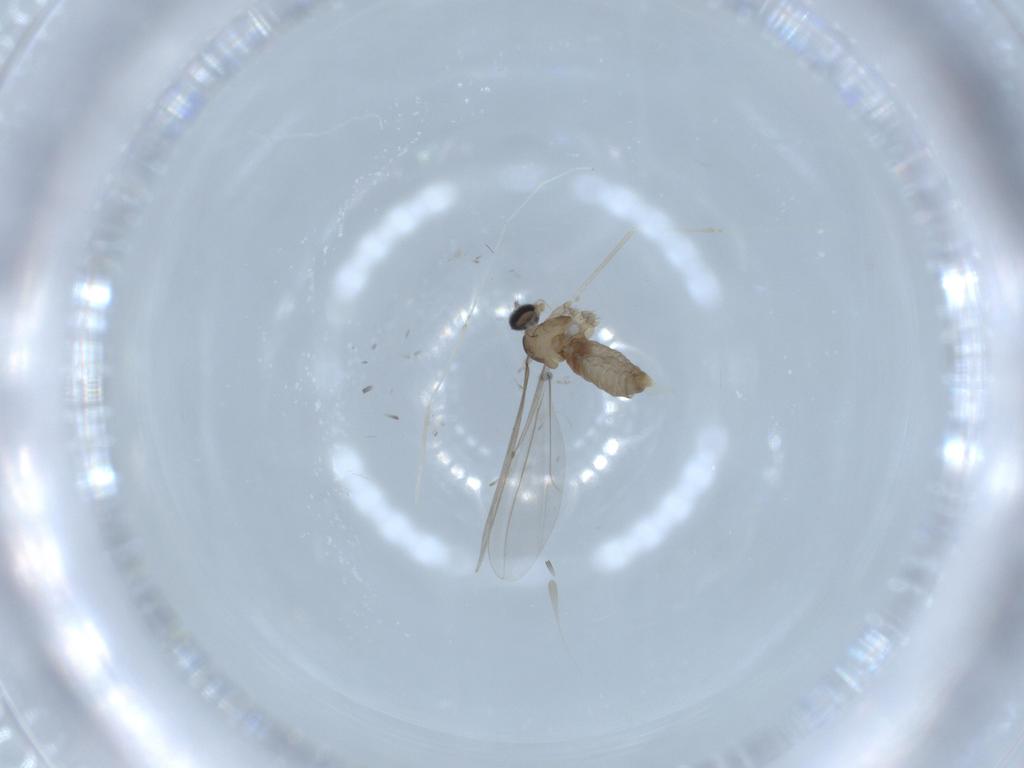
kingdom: Animalia
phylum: Arthropoda
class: Insecta
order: Diptera
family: Cecidomyiidae
